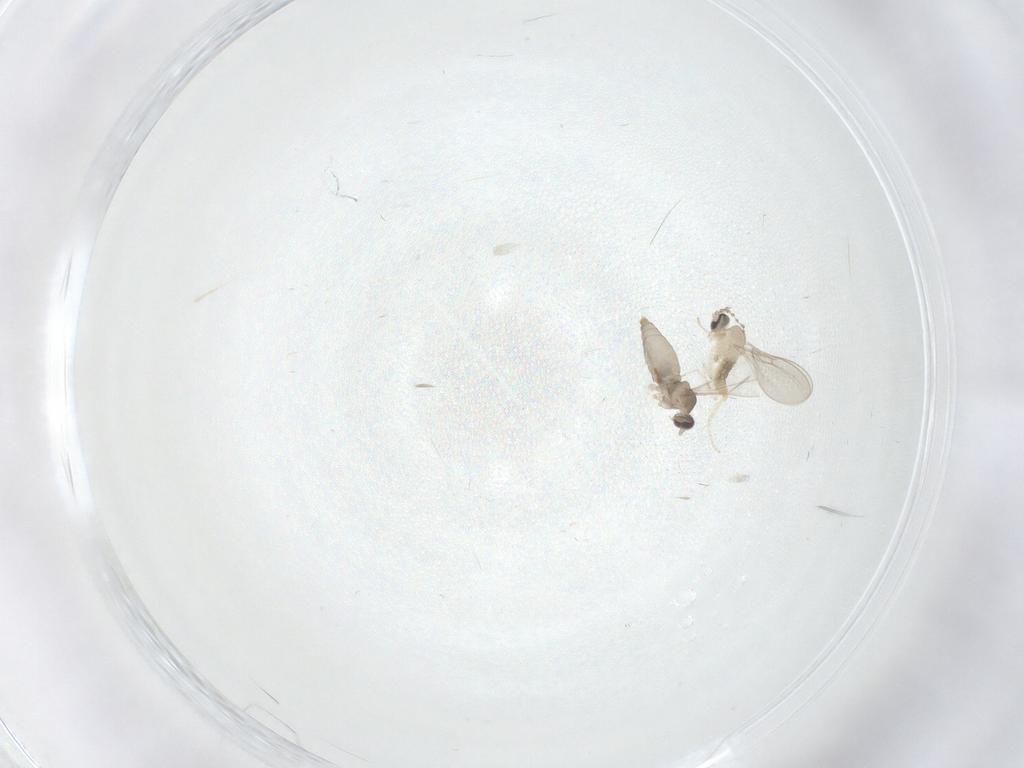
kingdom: Animalia
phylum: Arthropoda
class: Insecta
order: Diptera
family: Cecidomyiidae
